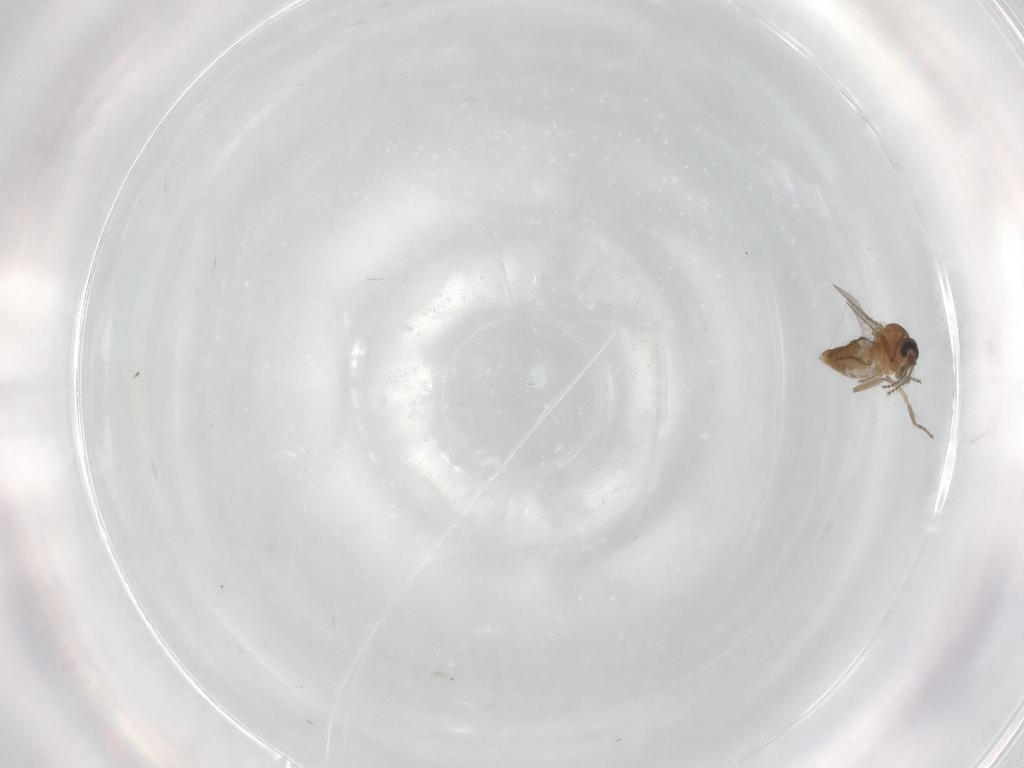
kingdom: Animalia
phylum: Arthropoda
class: Insecta
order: Diptera
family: Ceratopogonidae
